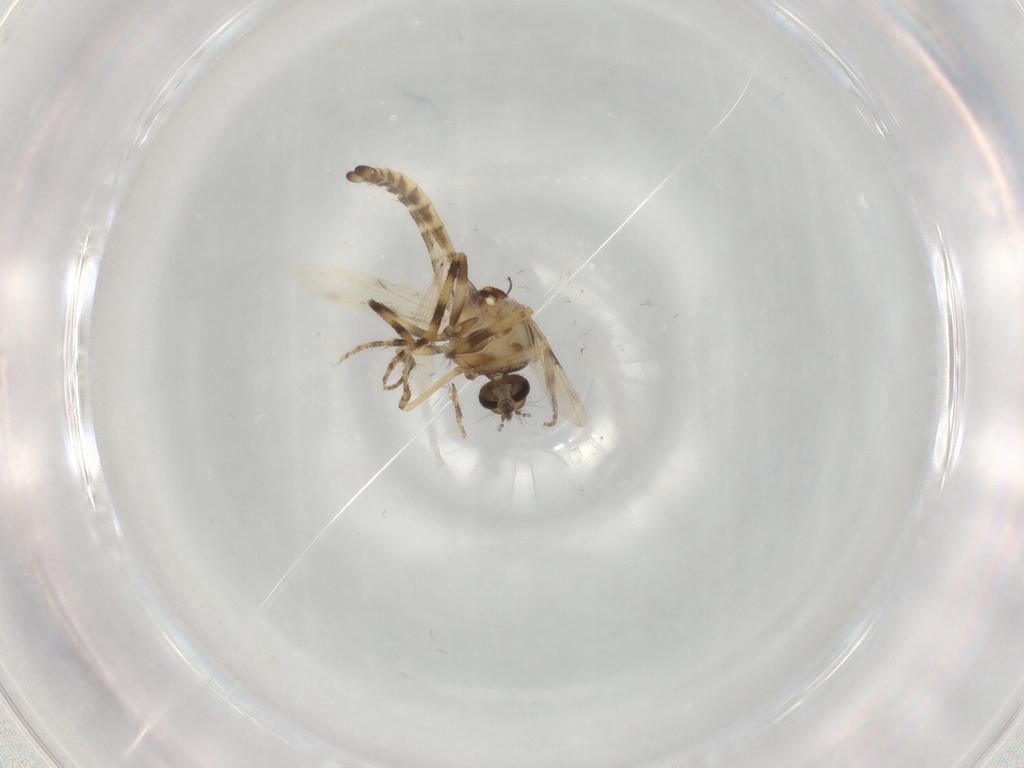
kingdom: Animalia
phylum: Arthropoda
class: Insecta
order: Diptera
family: Ceratopogonidae
